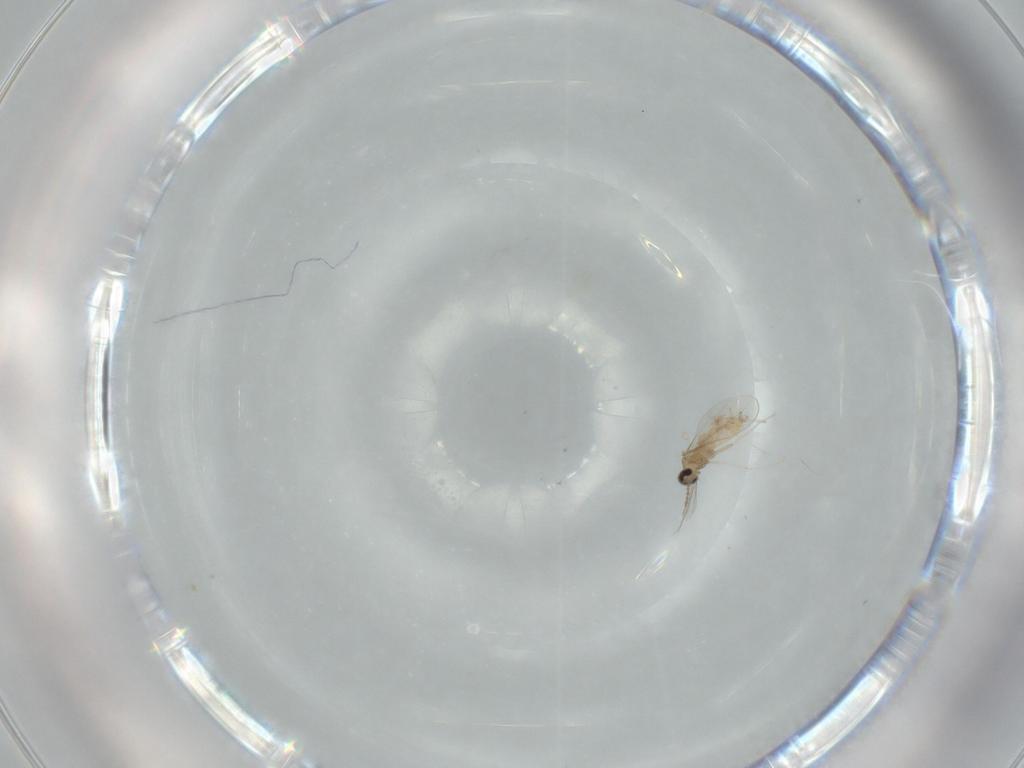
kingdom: Animalia
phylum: Arthropoda
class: Insecta
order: Diptera
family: Cecidomyiidae
